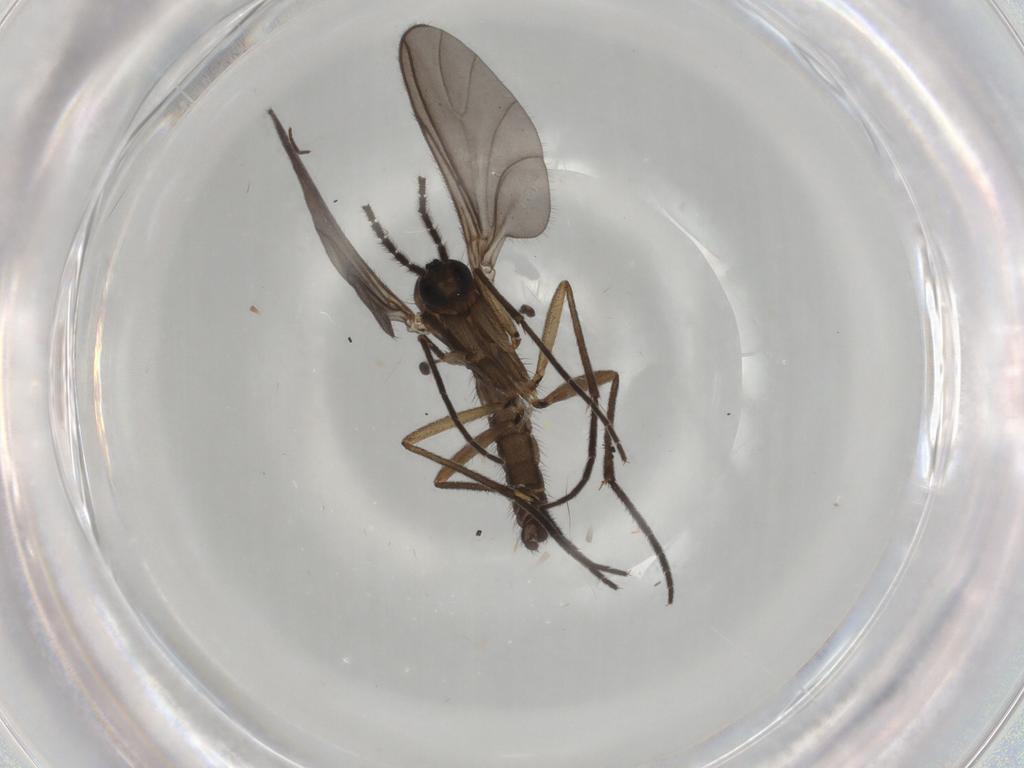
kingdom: Animalia
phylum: Arthropoda
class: Insecta
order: Diptera
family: Sciaridae
